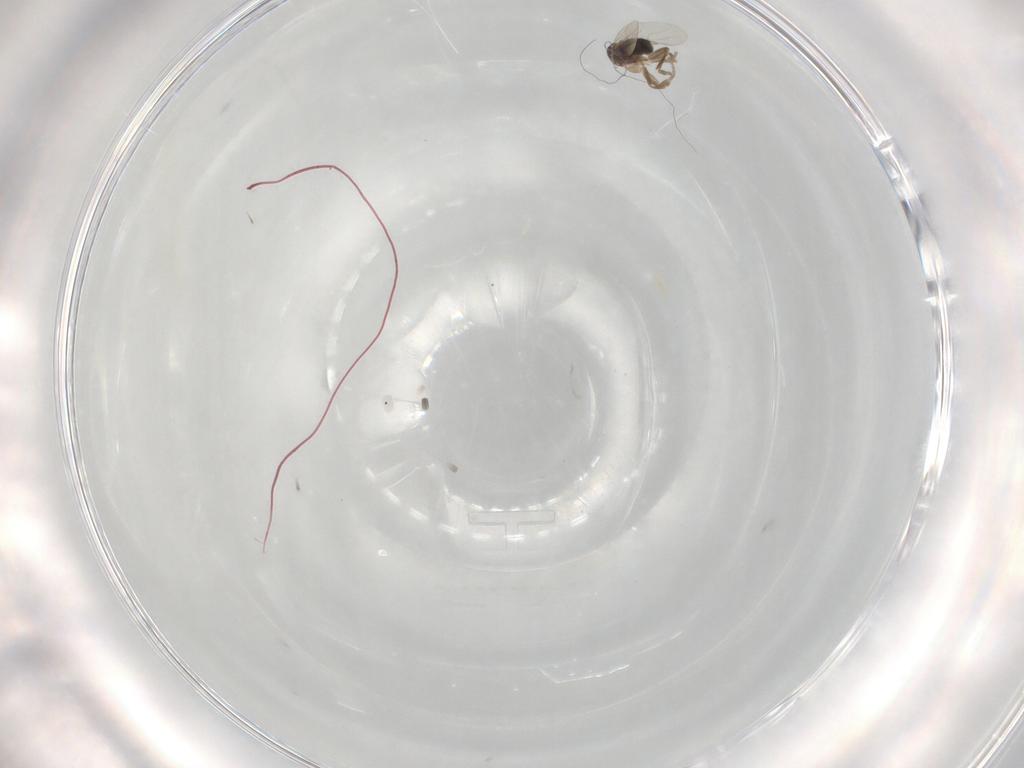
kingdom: Animalia
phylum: Arthropoda
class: Insecta
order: Diptera
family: Cecidomyiidae
